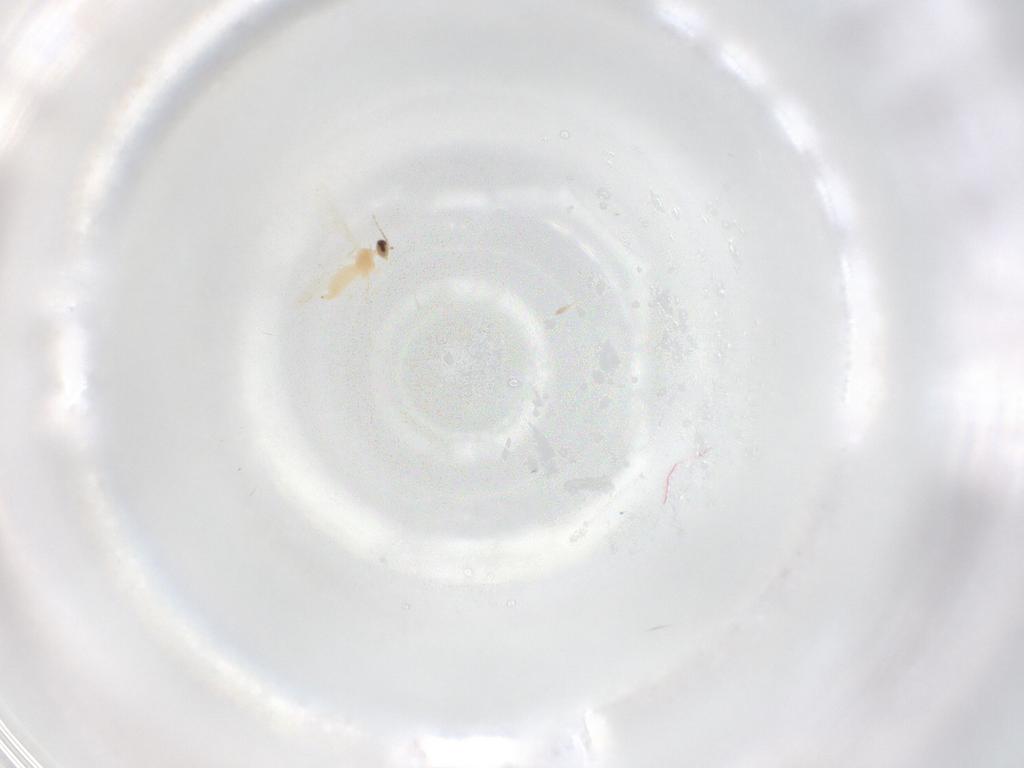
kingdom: Animalia
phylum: Arthropoda
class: Insecta
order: Diptera
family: Cecidomyiidae
